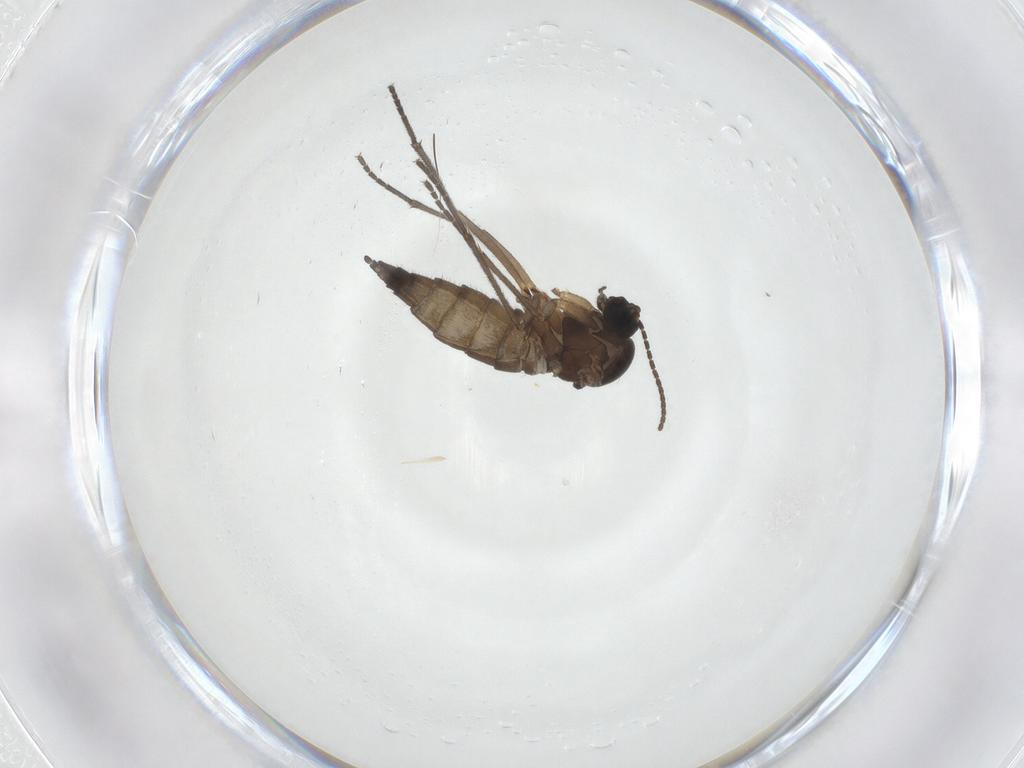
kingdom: Animalia
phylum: Arthropoda
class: Insecta
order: Diptera
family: Sciaridae
